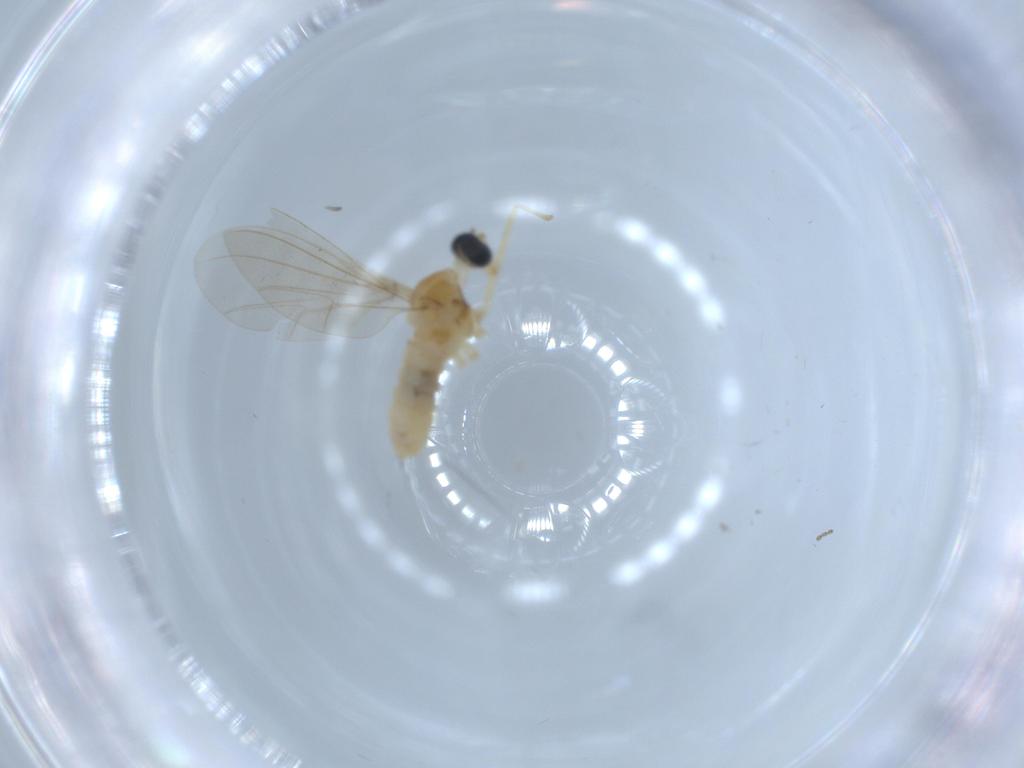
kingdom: Animalia
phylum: Arthropoda
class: Insecta
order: Diptera
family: Cecidomyiidae
